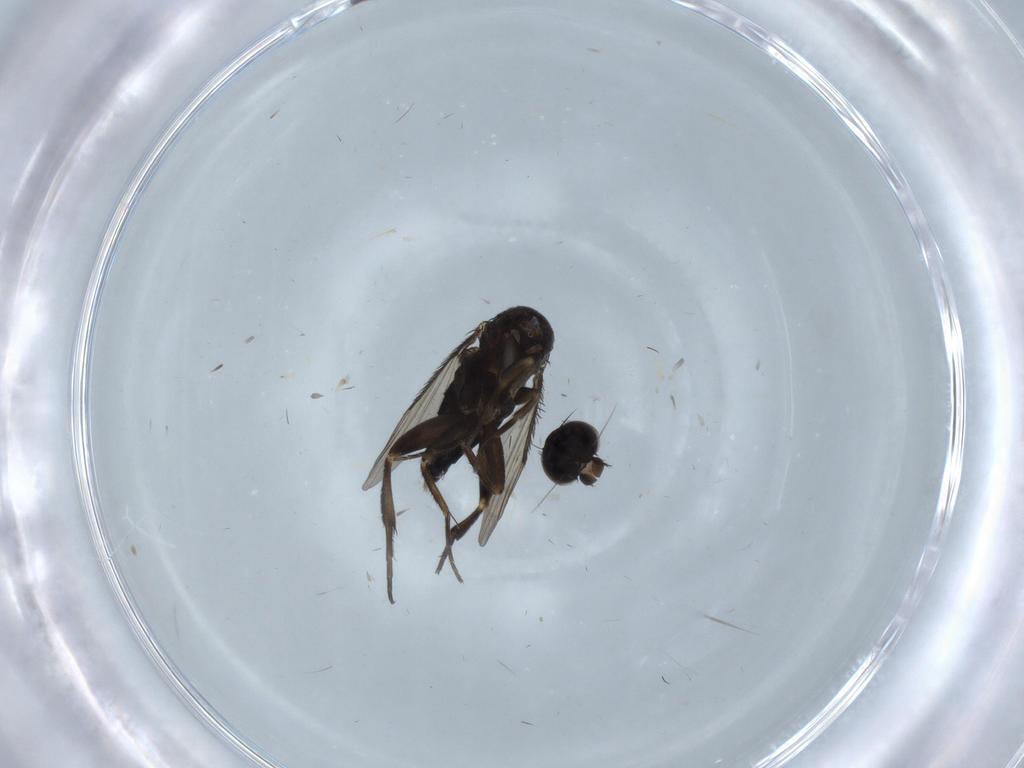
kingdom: Animalia
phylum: Arthropoda
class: Insecta
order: Diptera
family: Phoridae
